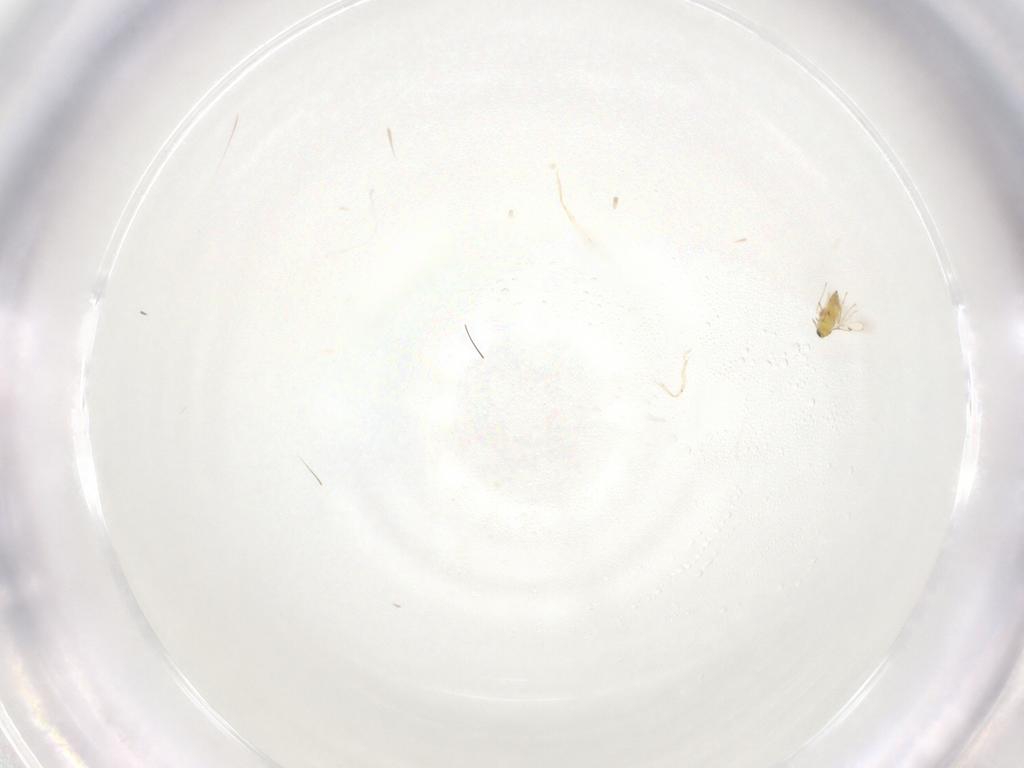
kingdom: Animalia
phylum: Arthropoda
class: Insecta
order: Hymenoptera
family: Trichogrammatidae
